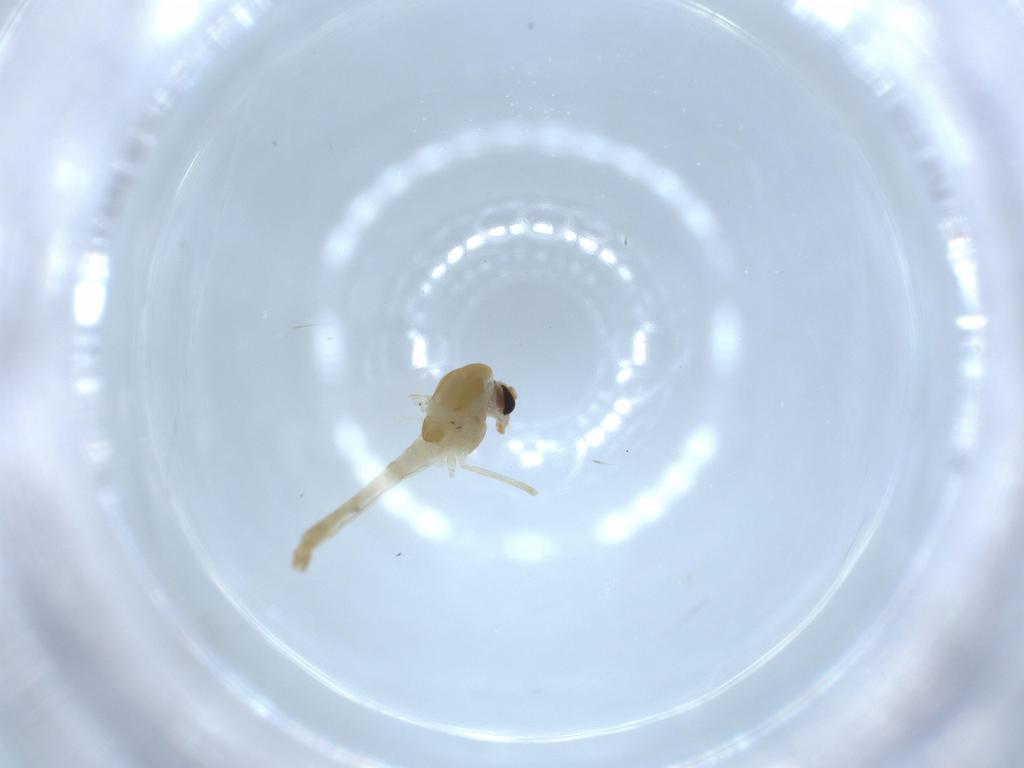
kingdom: Animalia
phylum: Arthropoda
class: Insecta
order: Diptera
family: Chironomidae
